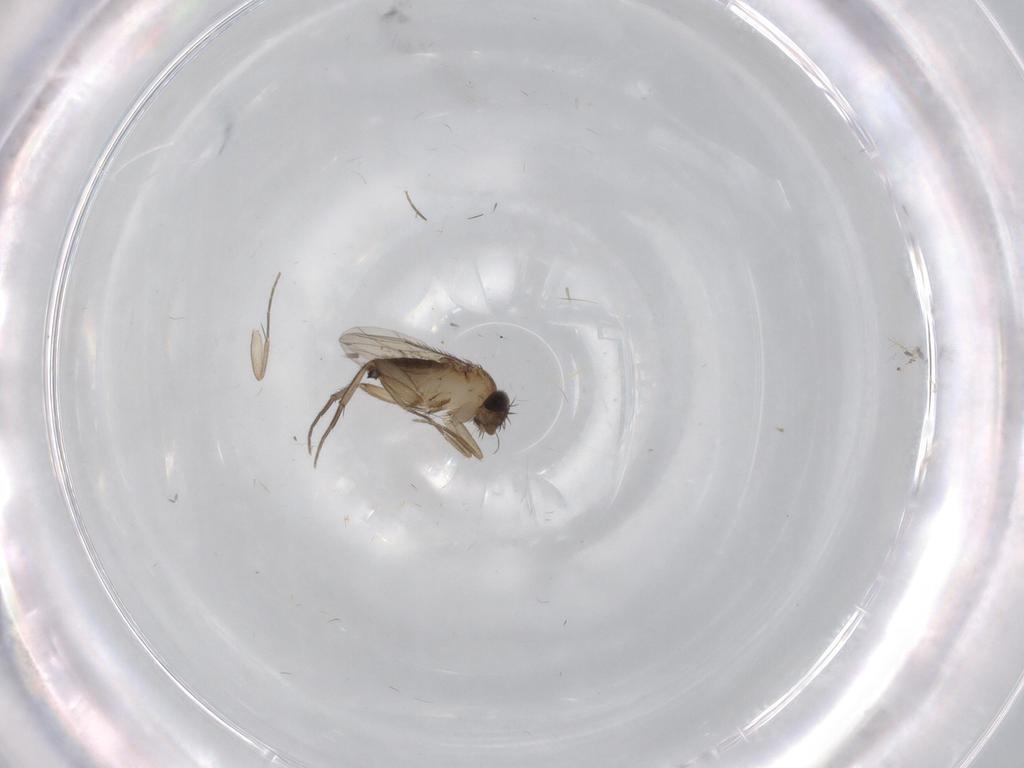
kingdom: Animalia
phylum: Arthropoda
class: Insecta
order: Diptera
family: Phoridae
